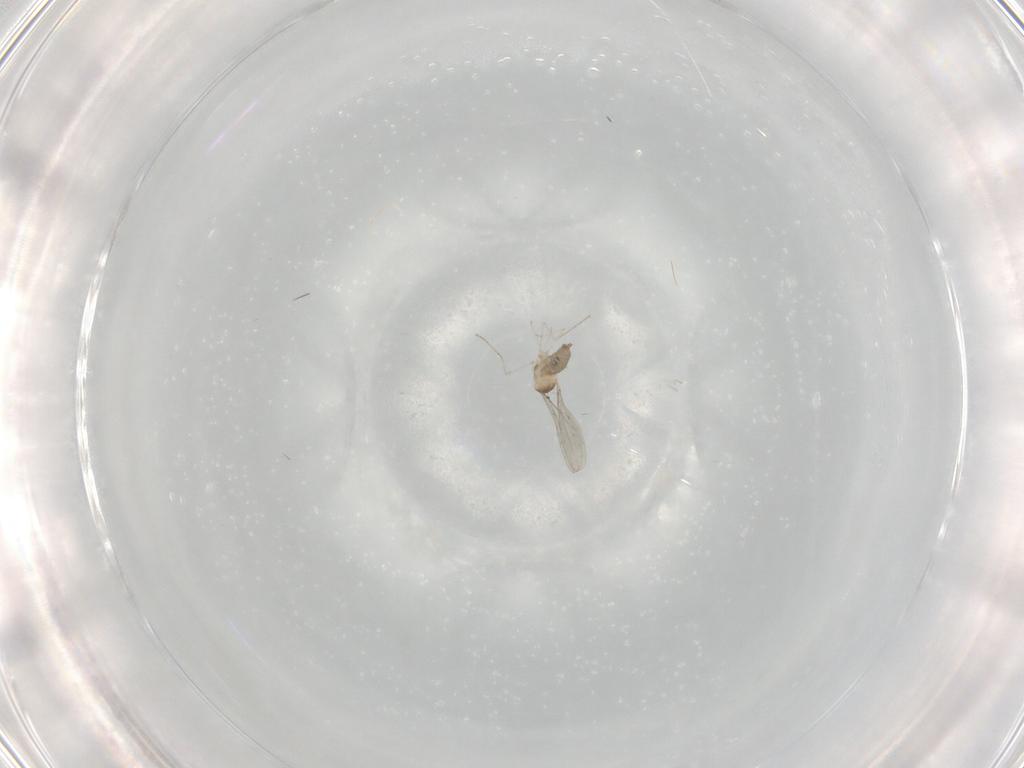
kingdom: Animalia
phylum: Arthropoda
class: Insecta
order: Diptera
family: Cecidomyiidae
